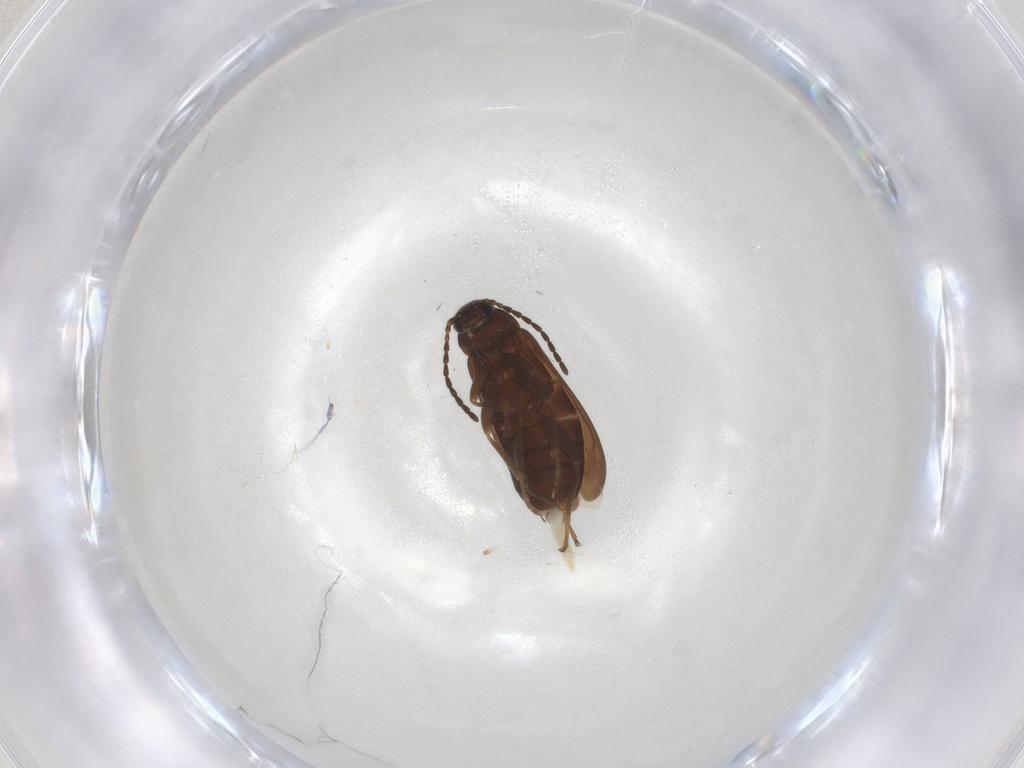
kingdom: Animalia
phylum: Arthropoda
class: Insecta
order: Coleoptera
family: Scraptiidae
